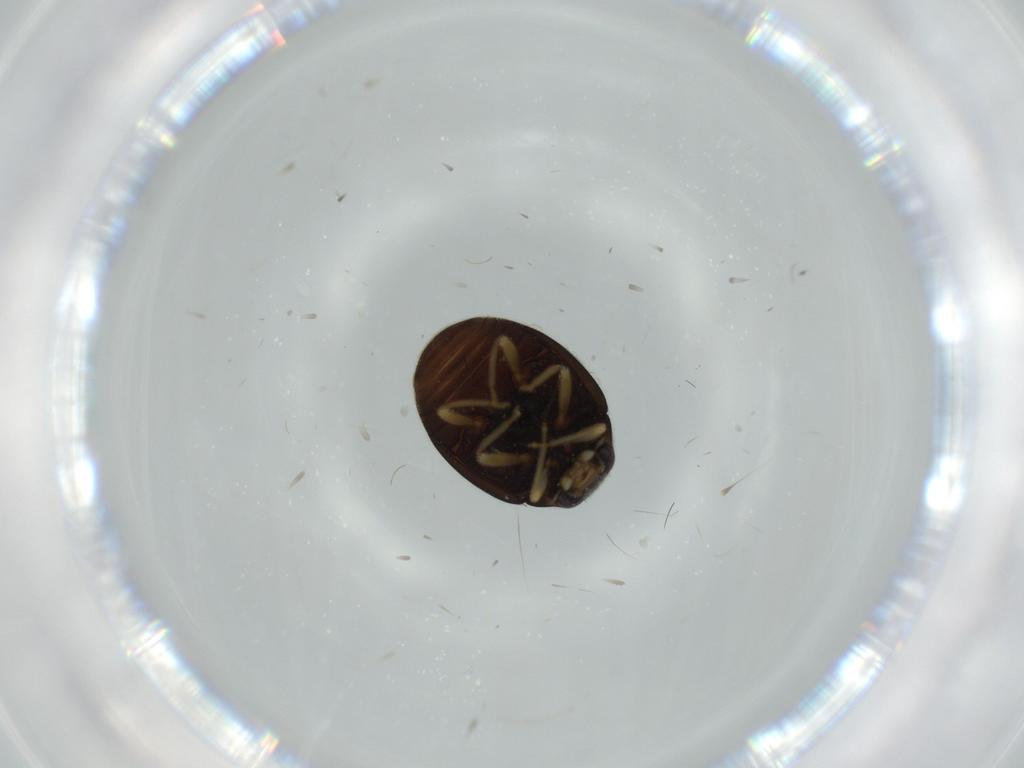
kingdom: Animalia
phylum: Arthropoda
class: Insecta
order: Coleoptera
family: Coccinellidae
